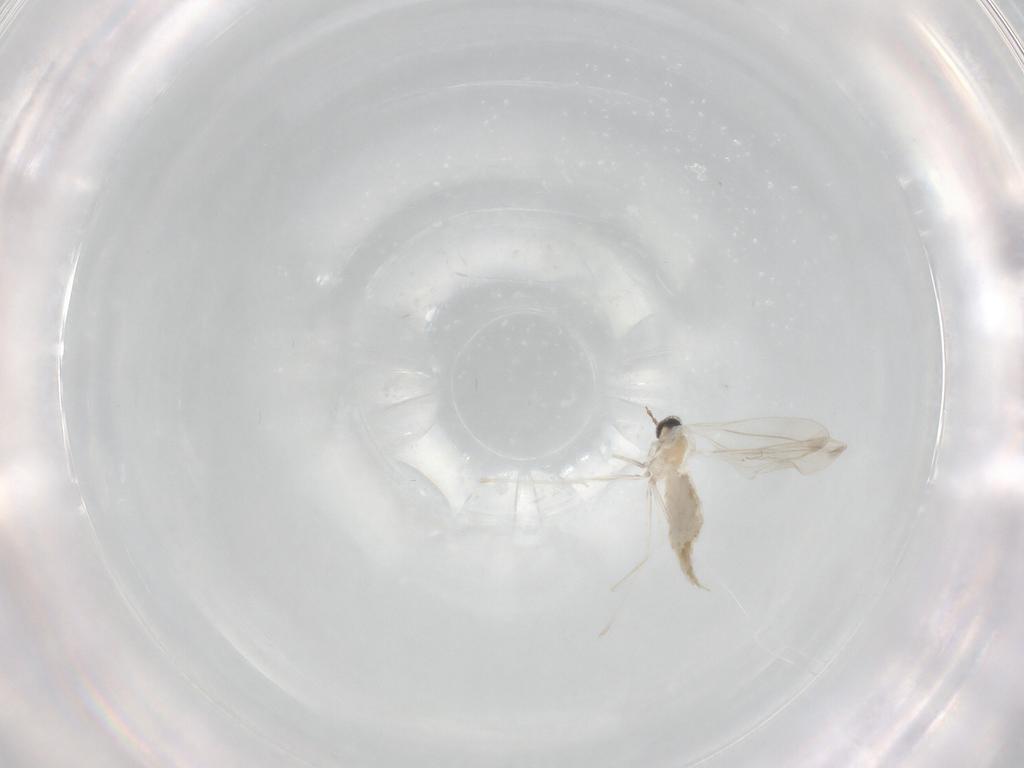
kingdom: Animalia
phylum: Arthropoda
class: Insecta
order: Diptera
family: Cecidomyiidae
